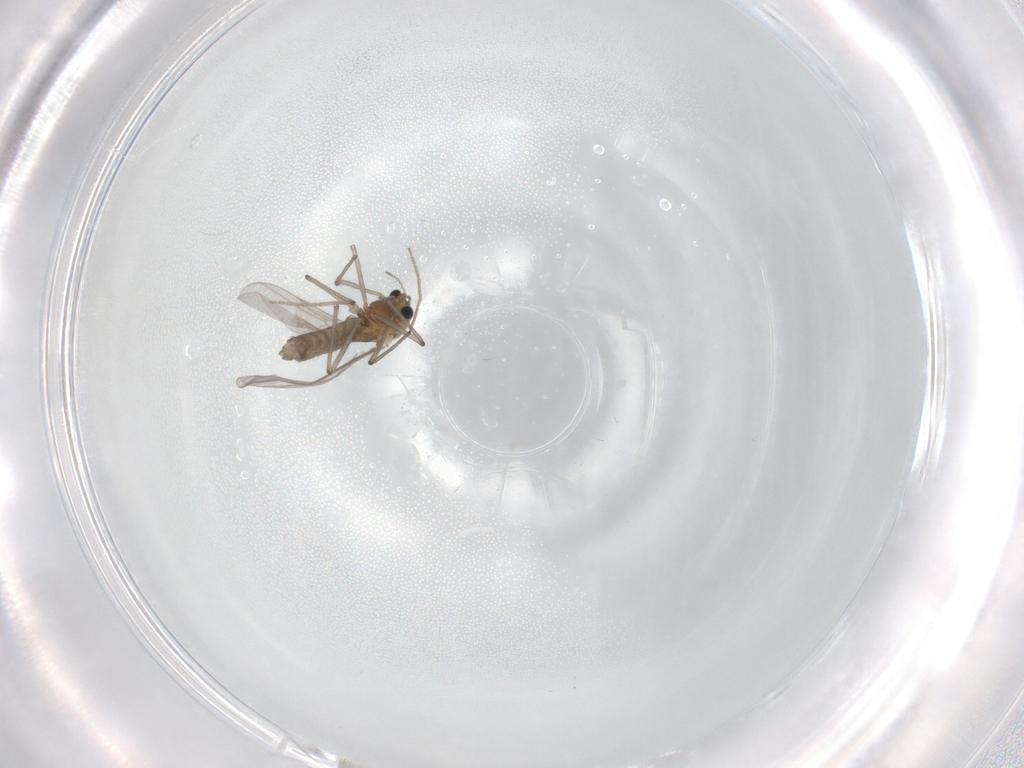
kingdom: Animalia
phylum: Arthropoda
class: Insecta
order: Diptera
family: Chironomidae
